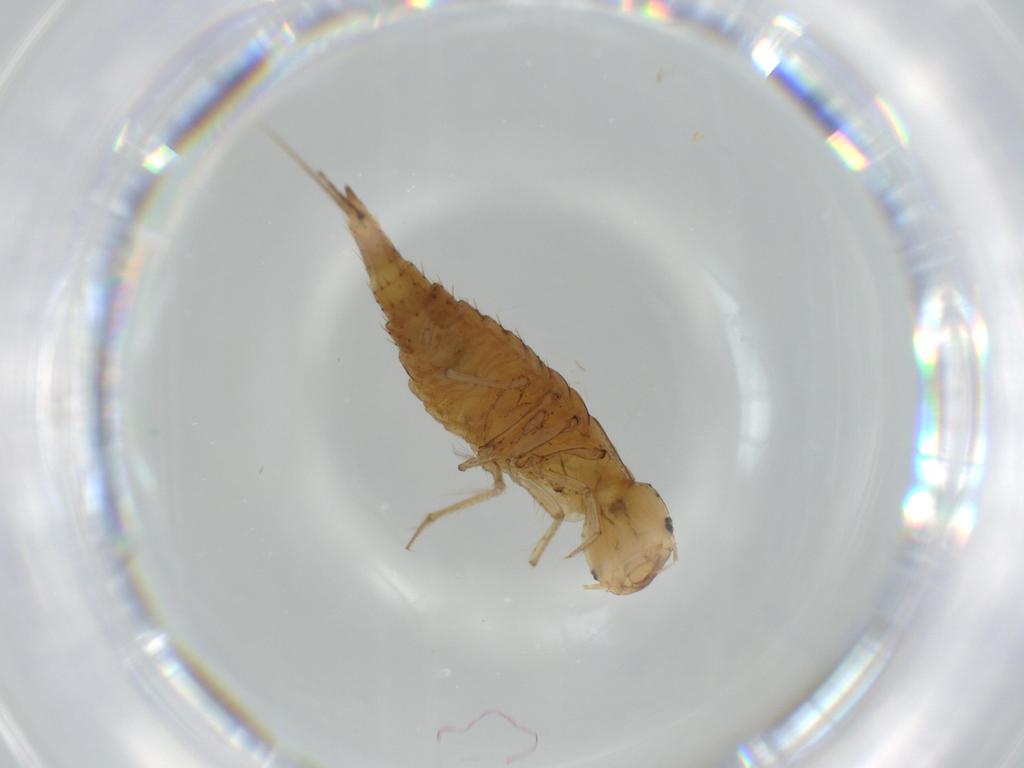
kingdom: Animalia
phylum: Arthropoda
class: Insecta
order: Coleoptera
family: Dytiscidae
